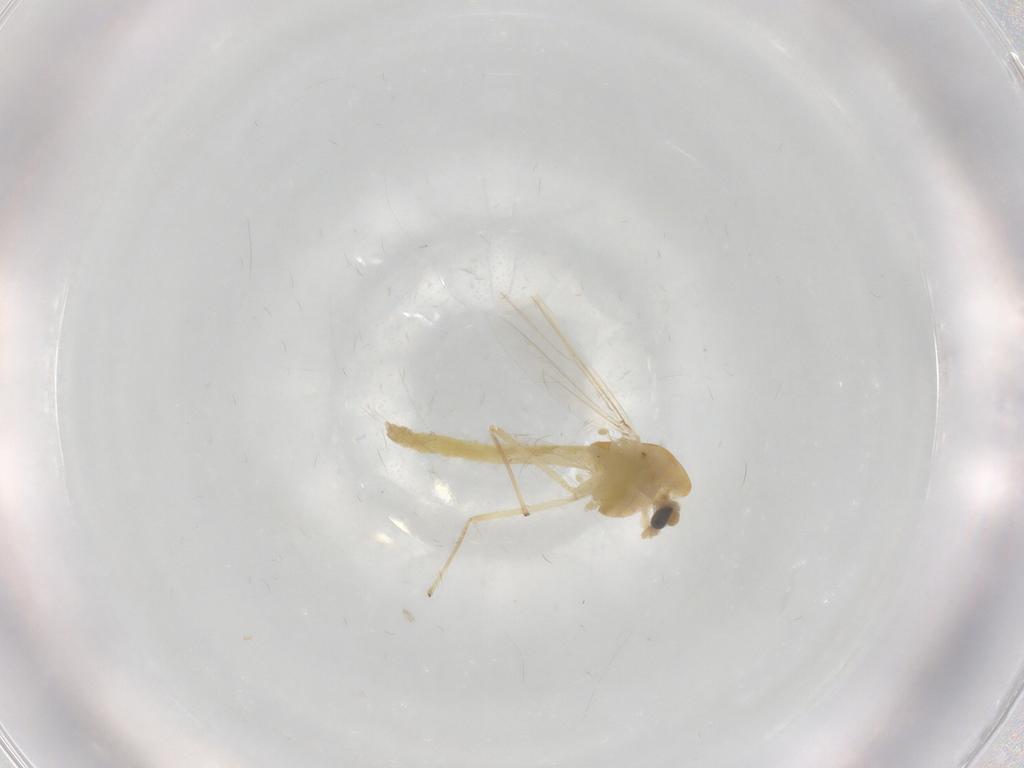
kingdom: Animalia
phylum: Arthropoda
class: Insecta
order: Diptera
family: Chironomidae
